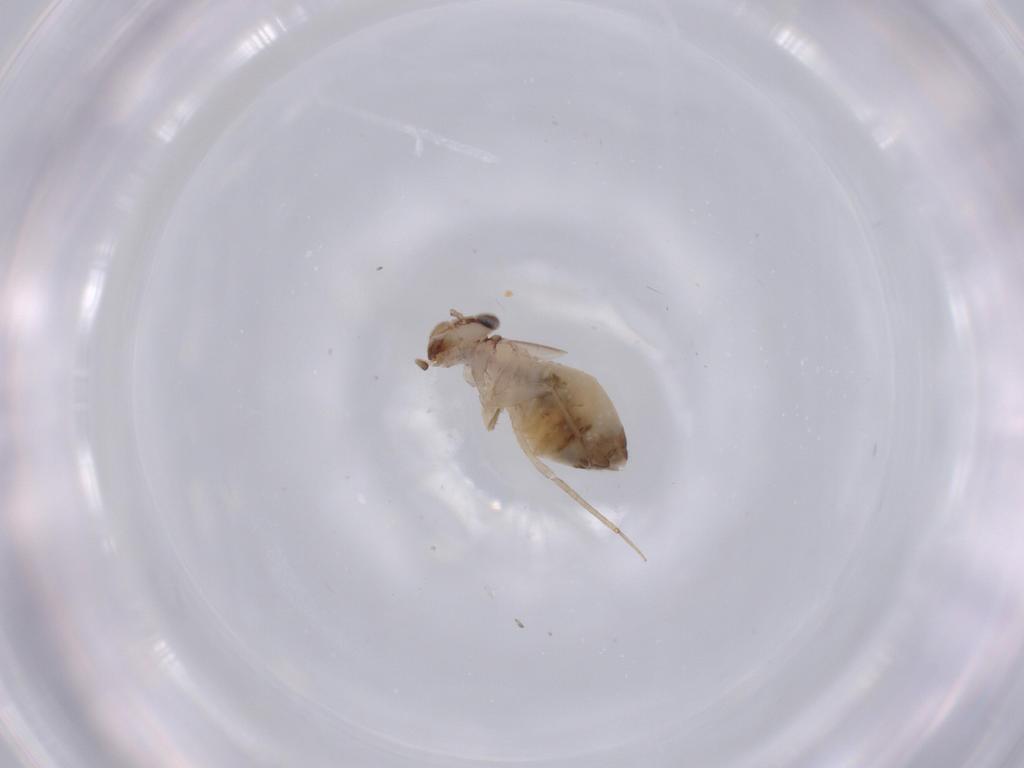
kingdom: Animalia
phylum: Arthropoda
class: Insecta
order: Psocodea
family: Lepidopsocidae
